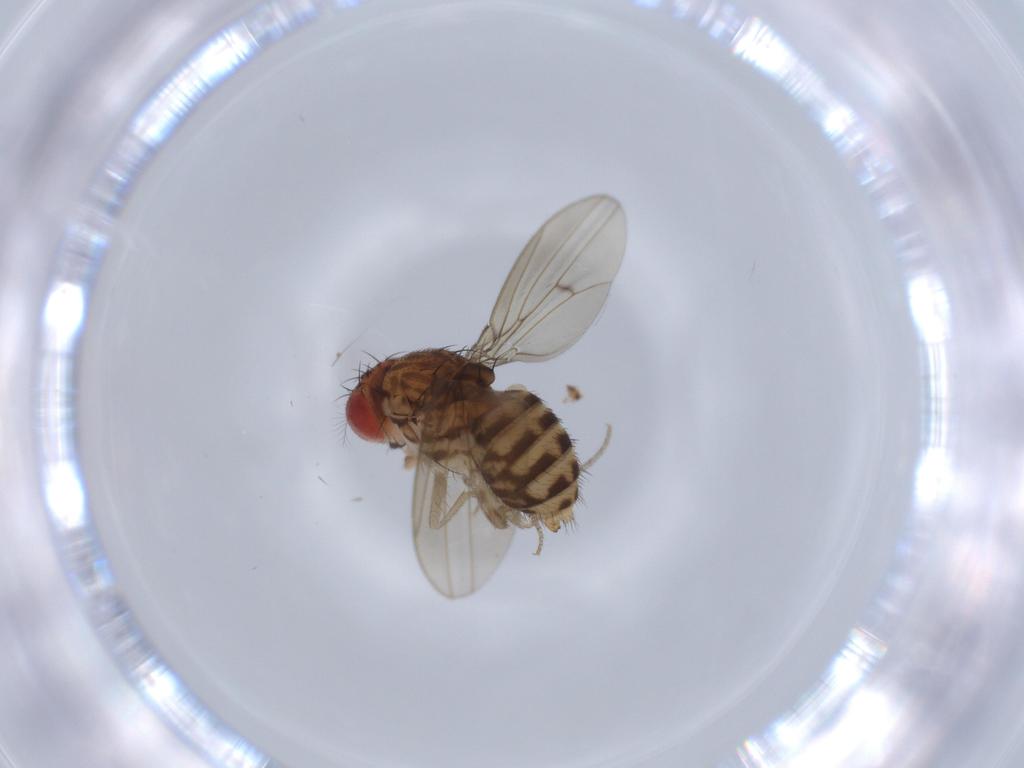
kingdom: Animalia
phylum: Arthropoda
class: Insecta
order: Diptera
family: Drosophilidae
